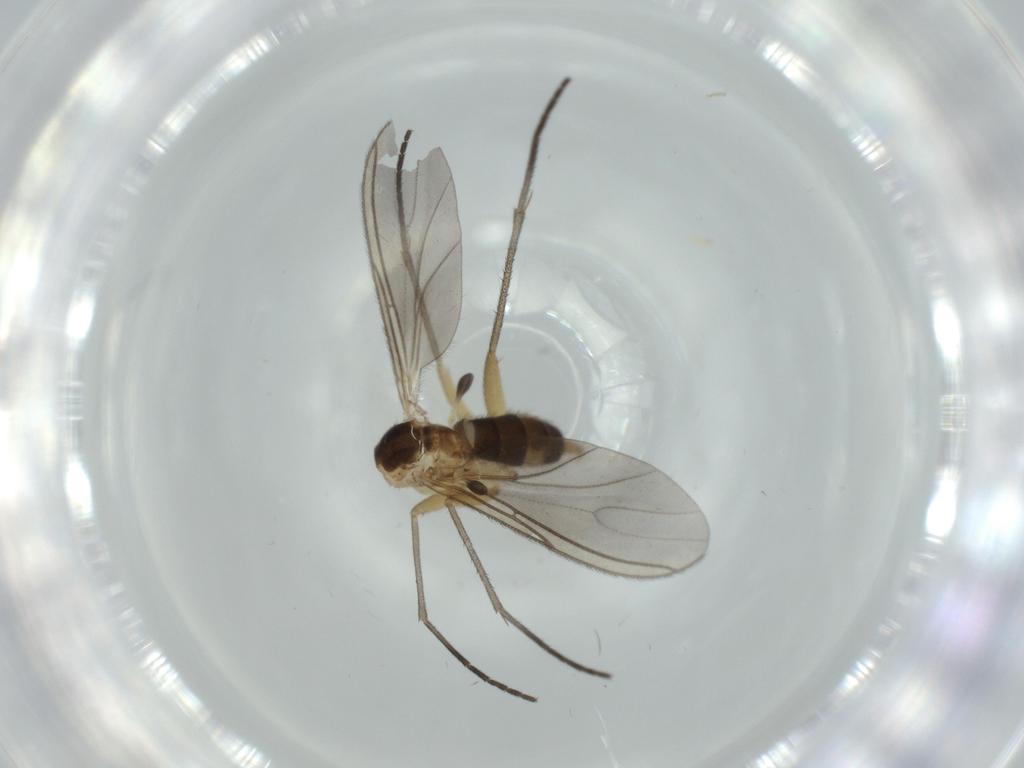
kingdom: Animalia
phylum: Arthropoda
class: Insecta
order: Diptera
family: Sciaridae
